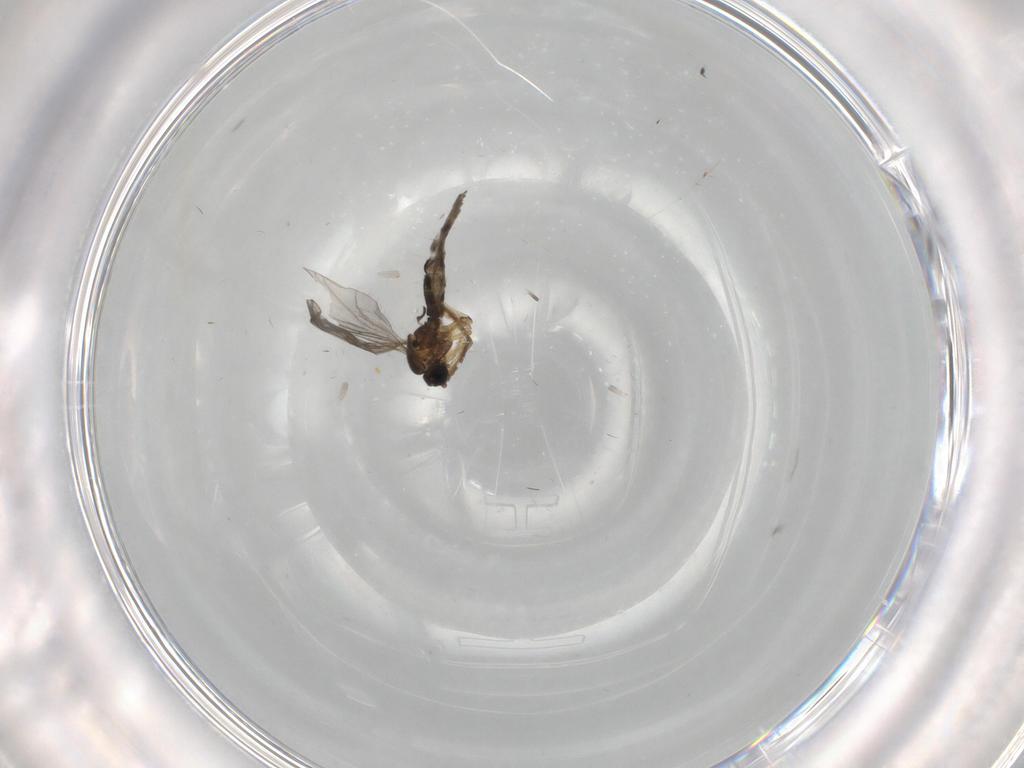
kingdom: Animalia
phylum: Arthropoda
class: Insecta
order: Diptera
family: Sciaridae
